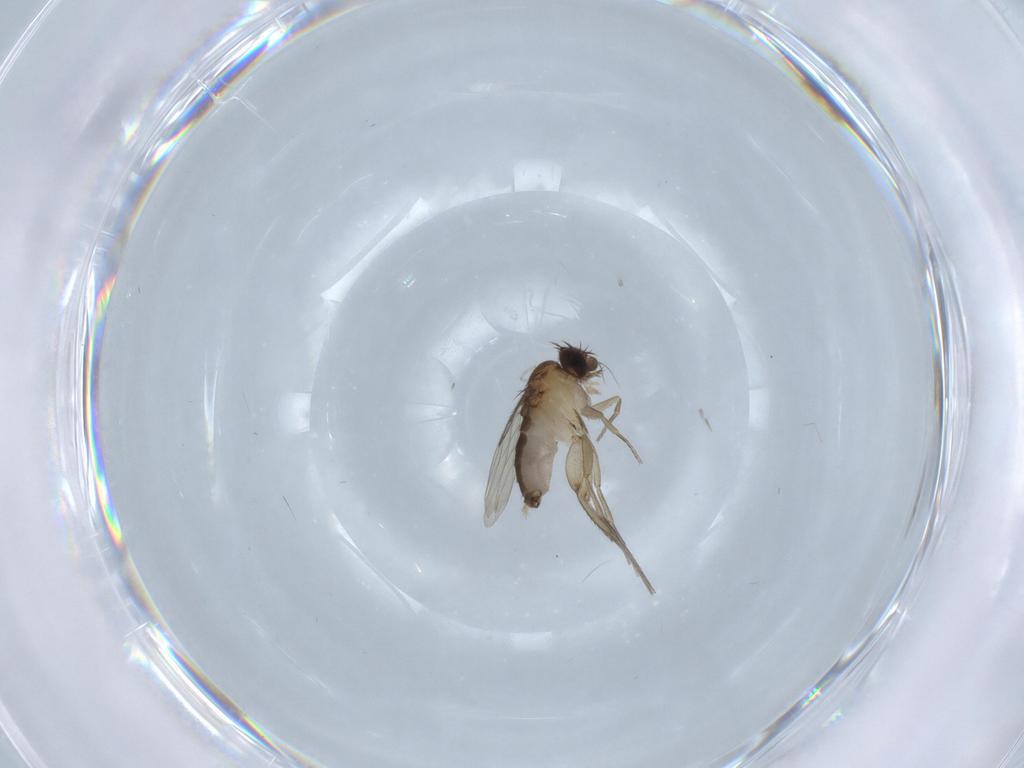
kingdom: Animalia
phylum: Arthropoda
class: Insecta
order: Diptera
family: Phoridae
